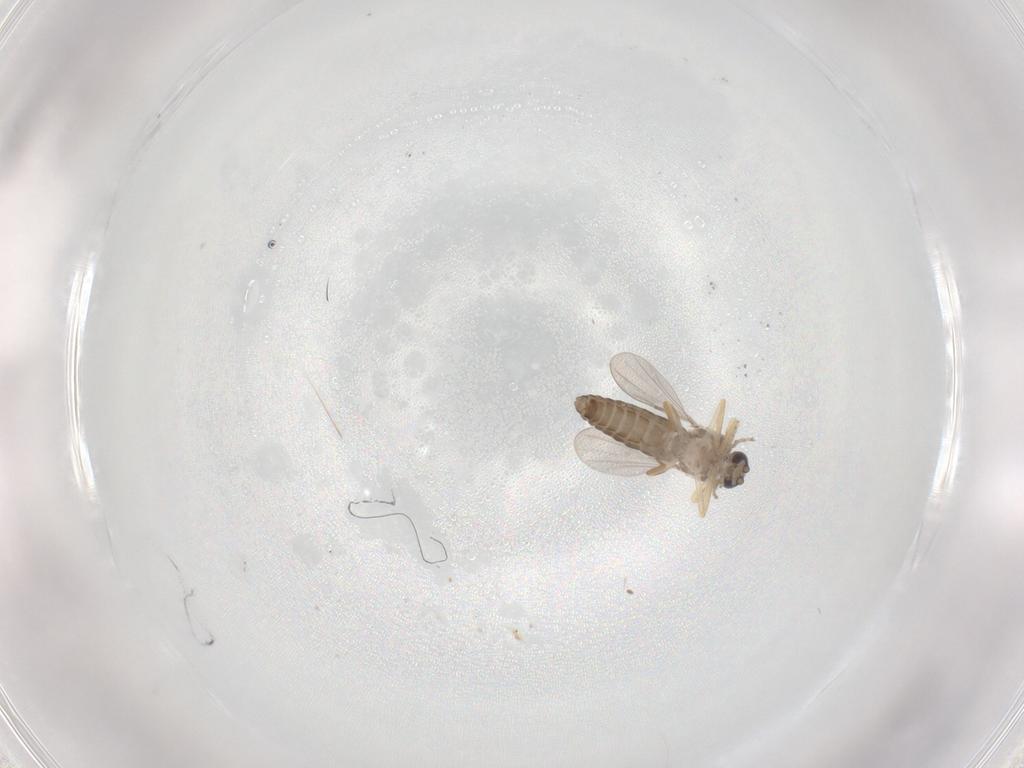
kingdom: Animalia
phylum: Arthropoda
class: Insecta
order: Diptera
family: Ceratopogonidae
